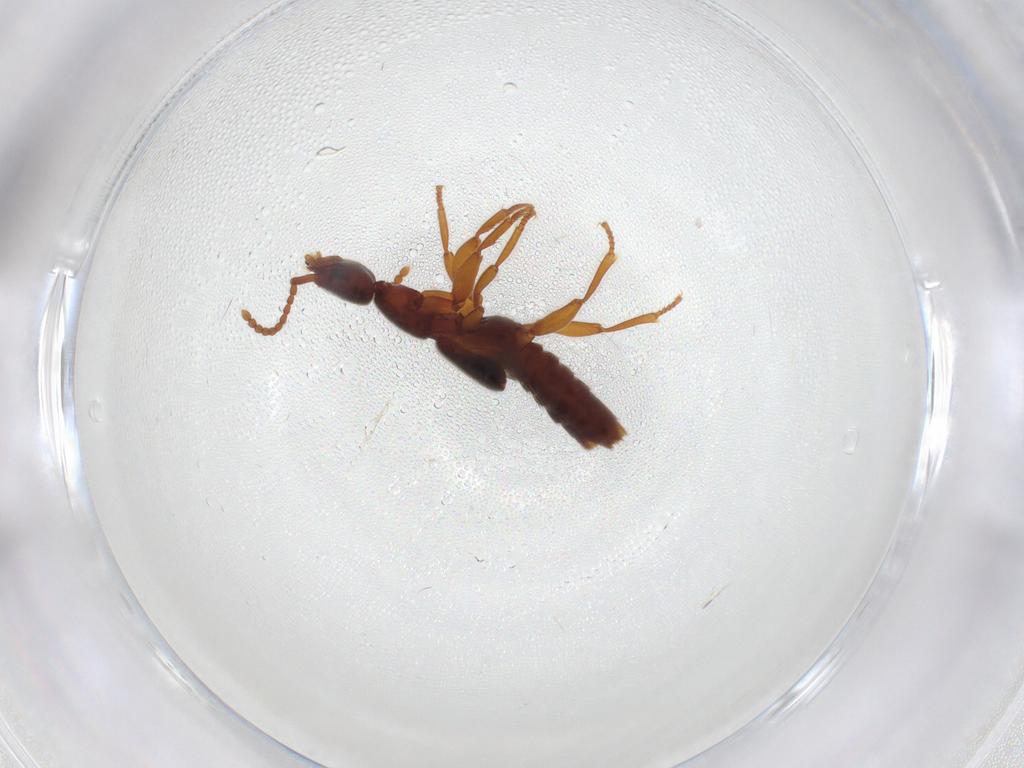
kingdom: Animalia
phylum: Arthropoda
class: Insecta
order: Coleoptera
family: Staphylinidae
